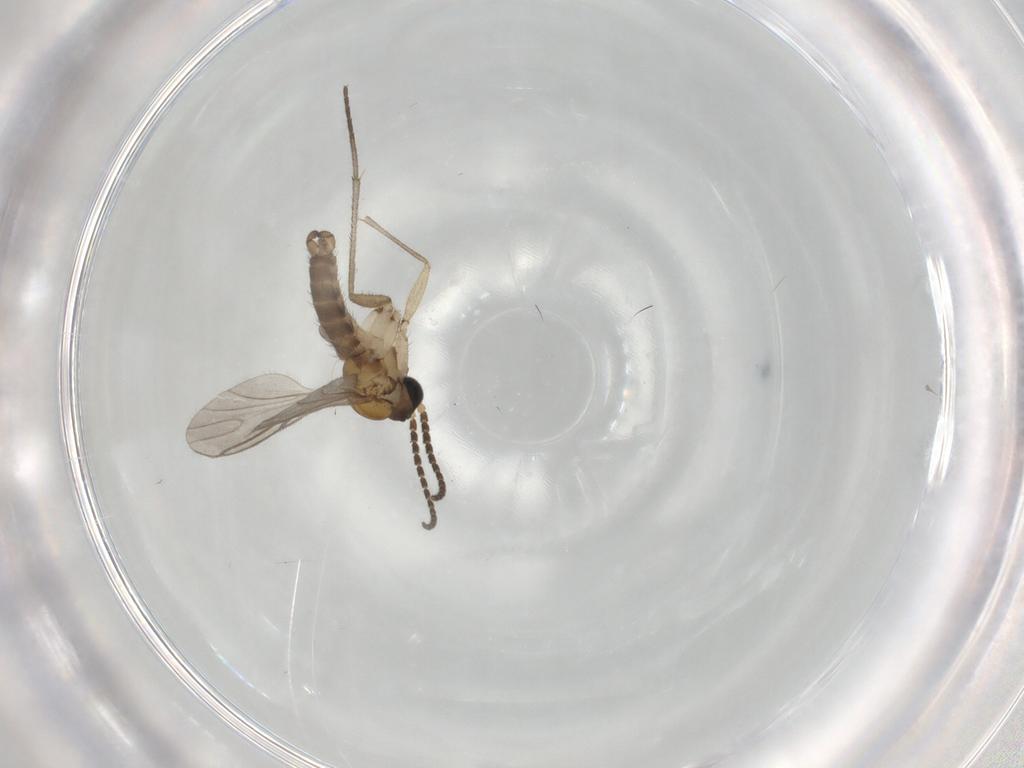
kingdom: Animalia
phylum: Arthropoda
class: Insecta
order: Diptera
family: Sciaridae
